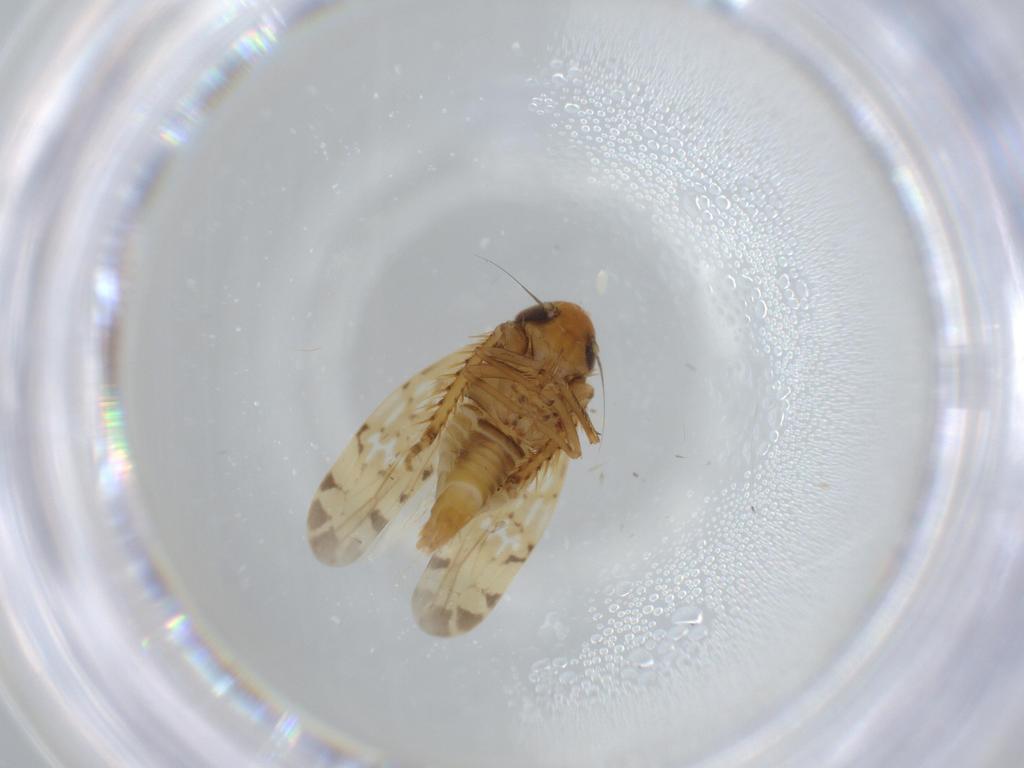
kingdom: Animalia
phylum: Arthropoda
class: Insecta
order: Hemiptera
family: Cicadellidae
